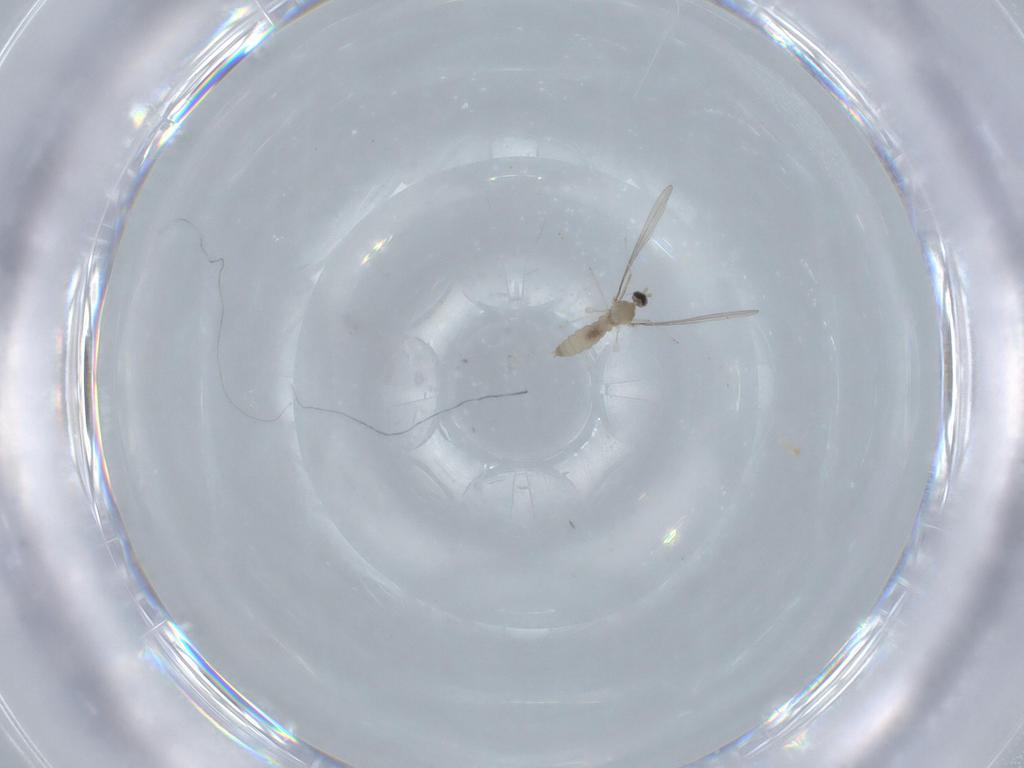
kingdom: Animalia
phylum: Arthropoda
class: Insecta
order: Diptera
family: Cecidomyiidae
